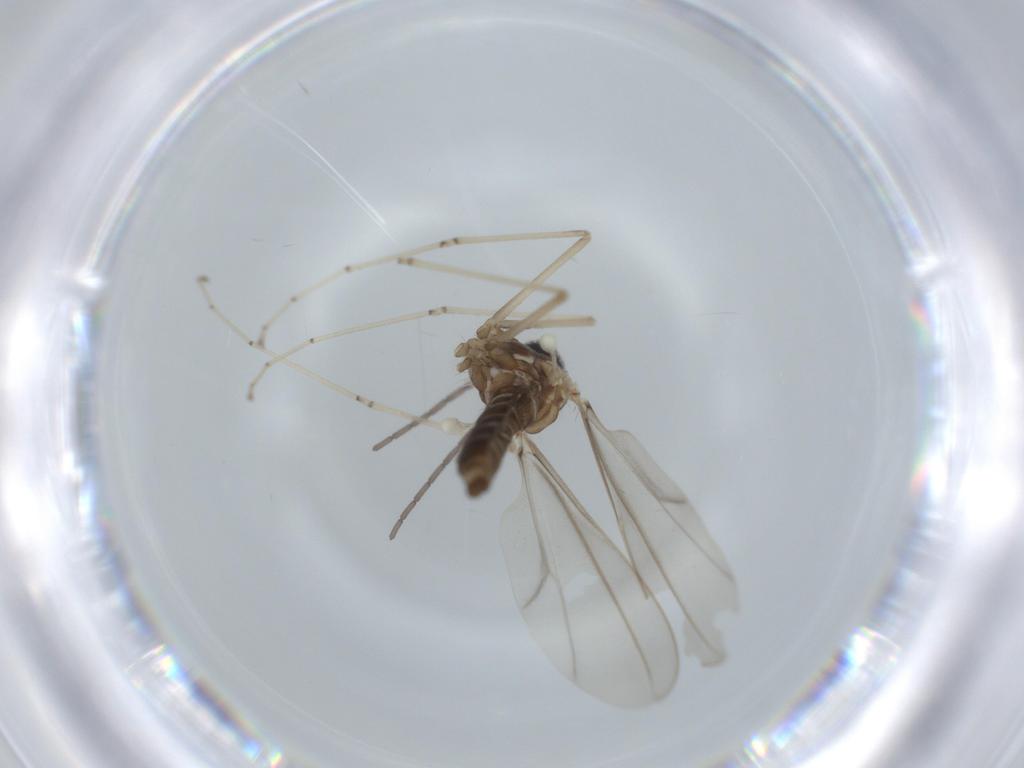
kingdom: Animalia
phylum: Arthropoda
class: Insecta
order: Diptera
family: Cecidomyiidae
